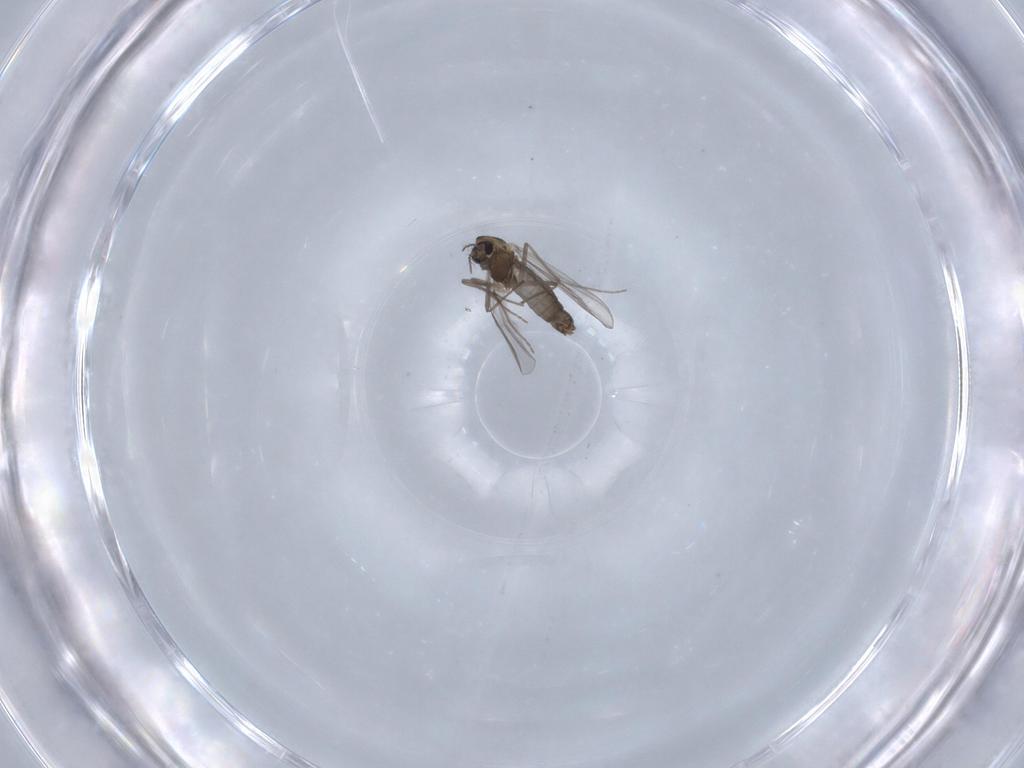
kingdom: Animalia
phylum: Arthropoda
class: Insecta
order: Diptera
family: Chironomidae
